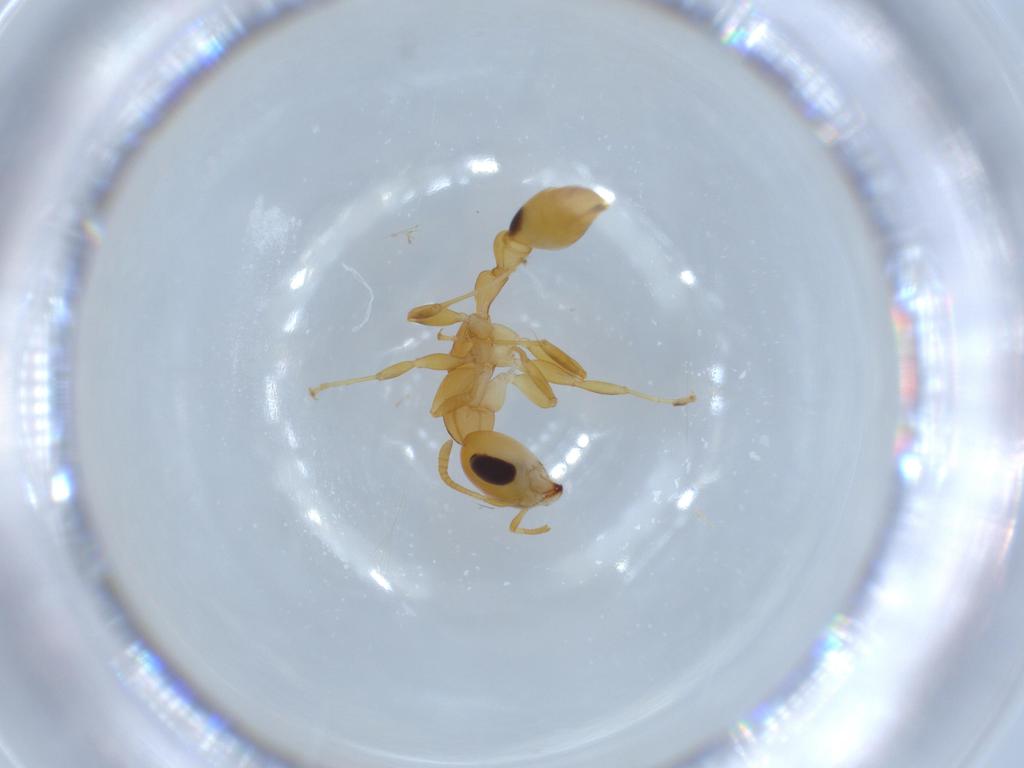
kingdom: Animalia
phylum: Arthropoda
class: Insecta
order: Hymenoptera
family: Formicidae
